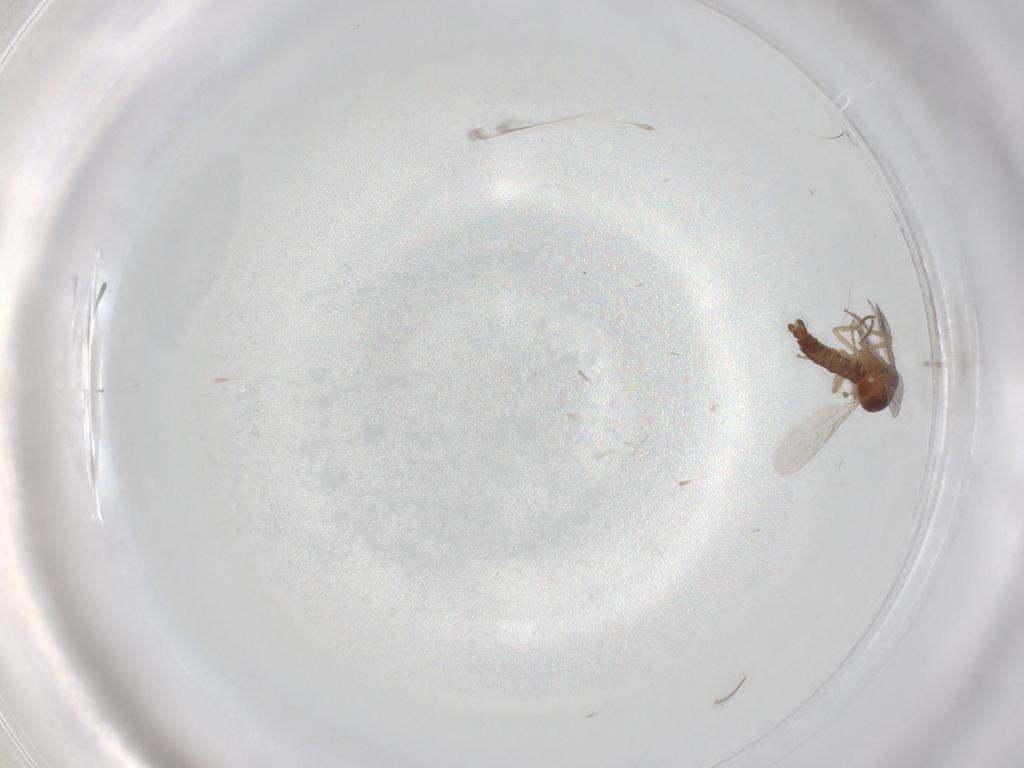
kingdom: Animalia
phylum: Arthropoda
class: Insecta
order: Diptera
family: Ceratopogonidae
